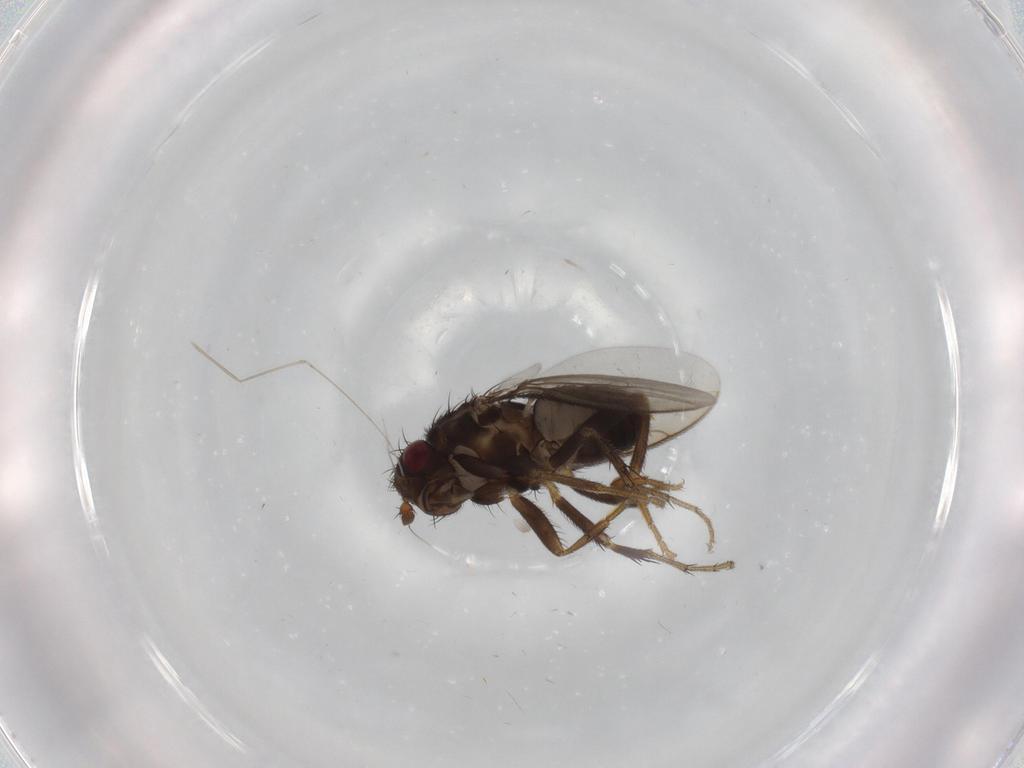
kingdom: Animalia
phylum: Arthropoda
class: Insecta
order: Diptera
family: Sphaeroceridae
